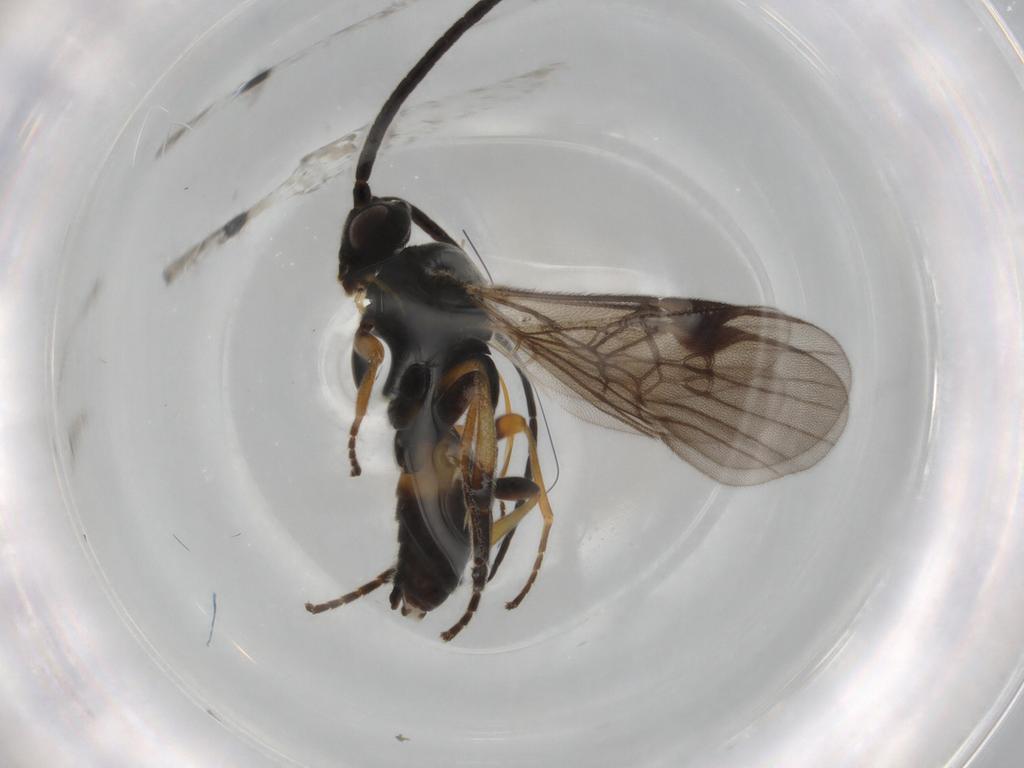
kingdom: Animalia
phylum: Arthropoda
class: Insecta
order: Hymenoptera
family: Braconidae
